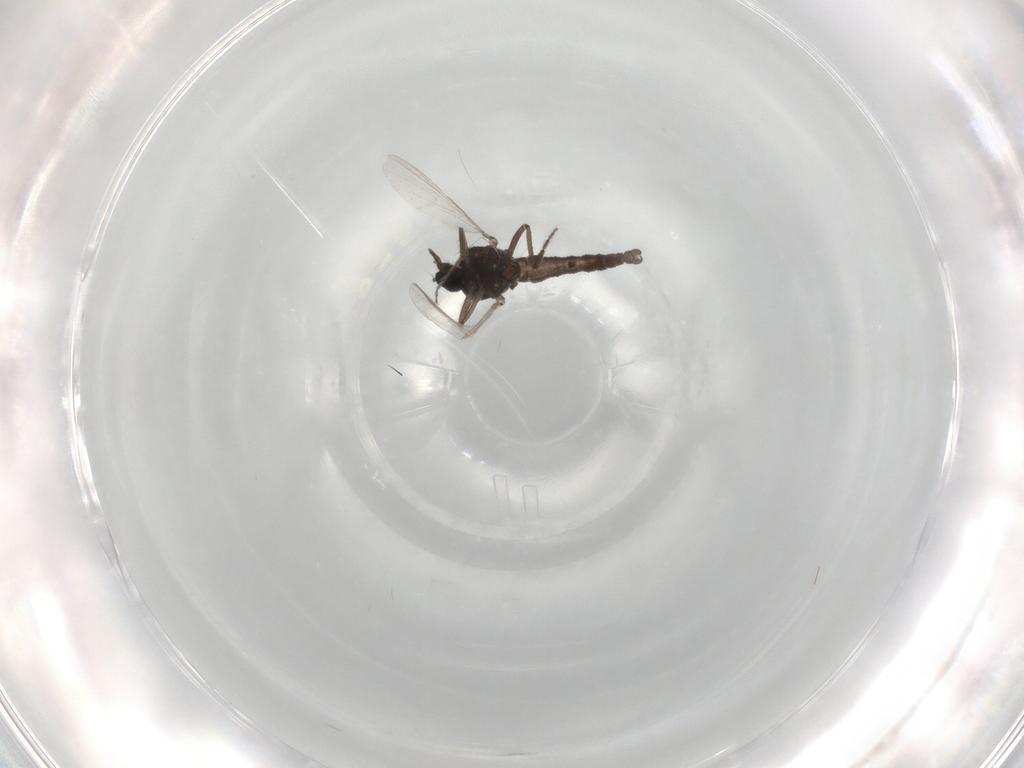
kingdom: Animalia
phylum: Arthropoda
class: Insecta
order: Diptera
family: Ceratopogonidae
